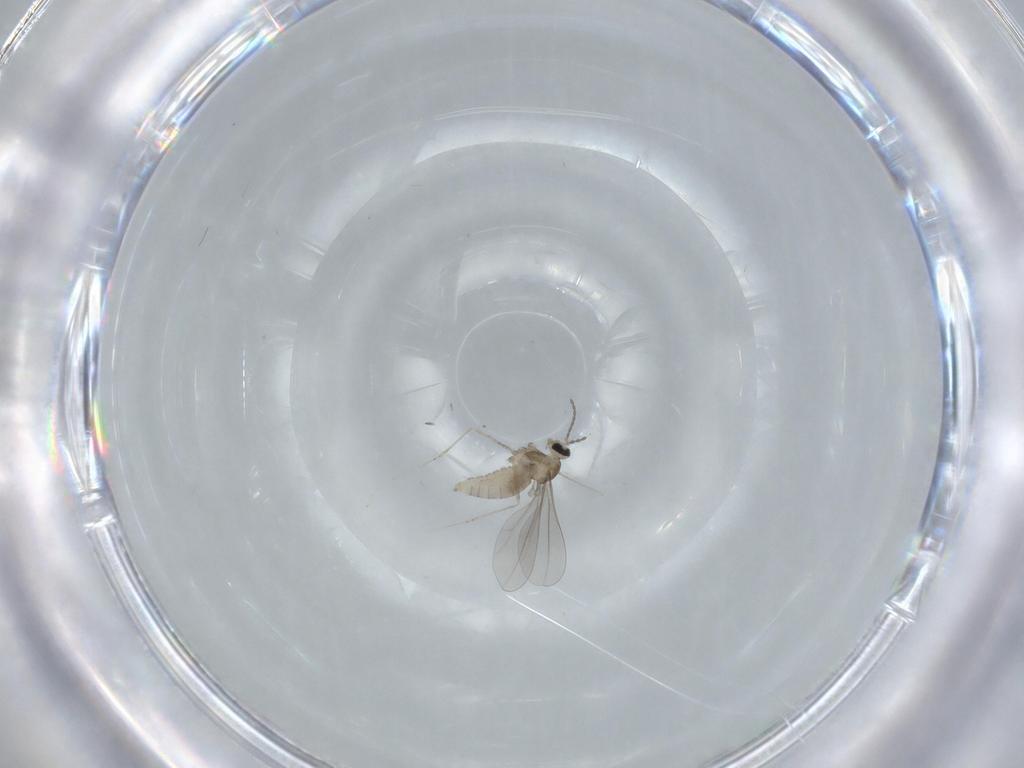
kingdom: Animalia
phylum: Arthropoda
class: Insecta
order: Diptera
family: Cecidomyiidae
